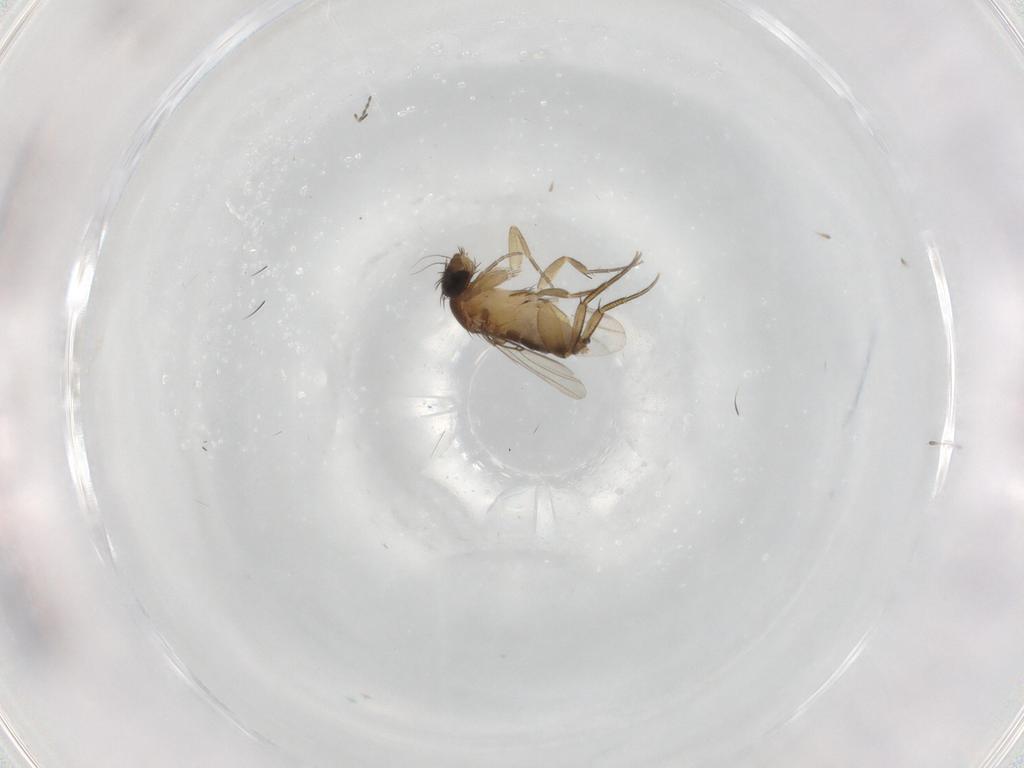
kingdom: Animalia
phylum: Arthropoda
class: Insecta
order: Diptera
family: Phoridae
